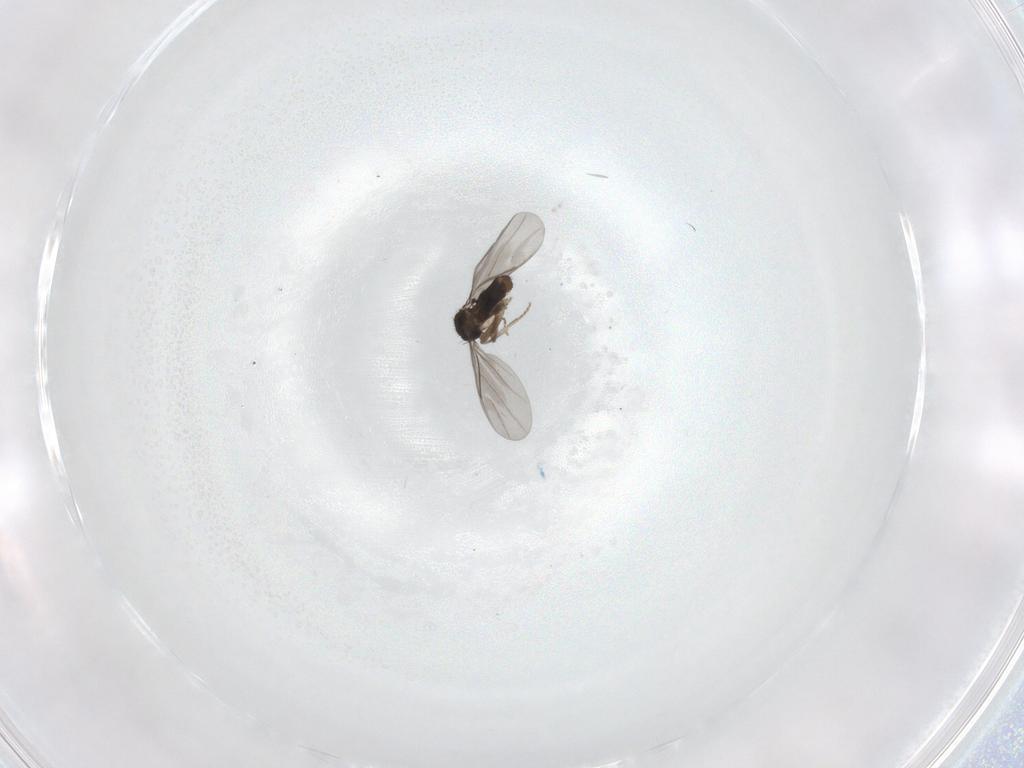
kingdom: Animalia
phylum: Arthropoda
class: Insecta
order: Diptera
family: Cecidomyiidae
